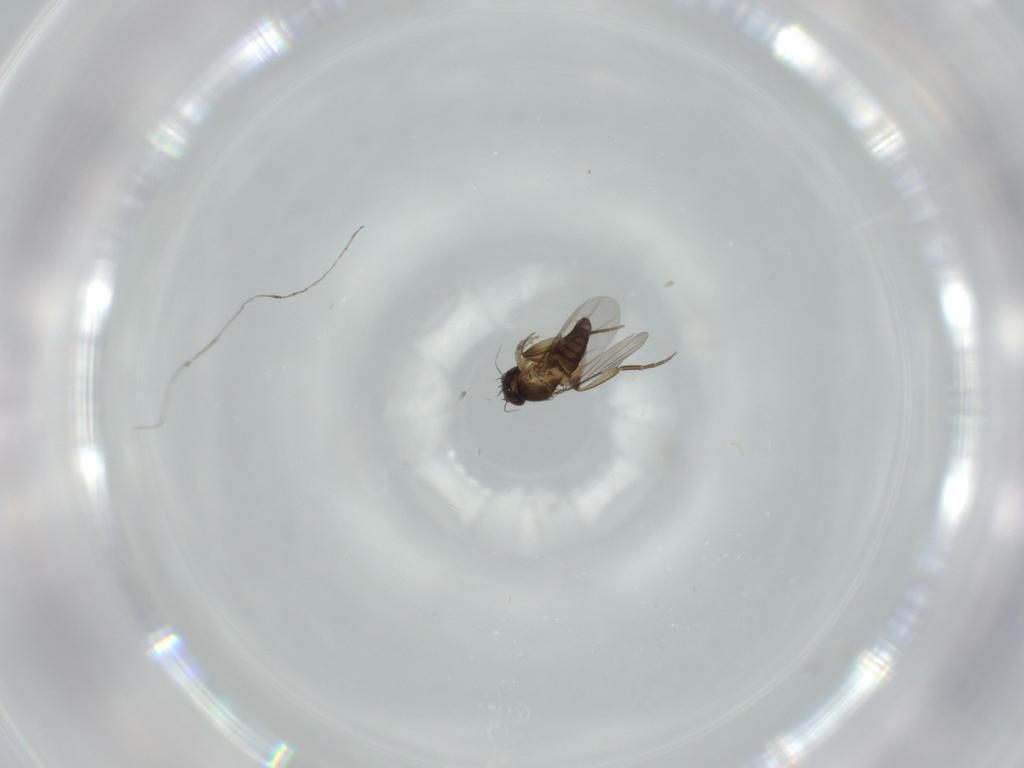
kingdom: Animalia
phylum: Arthropoda
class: Insecta
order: Diptera
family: Phoridae
